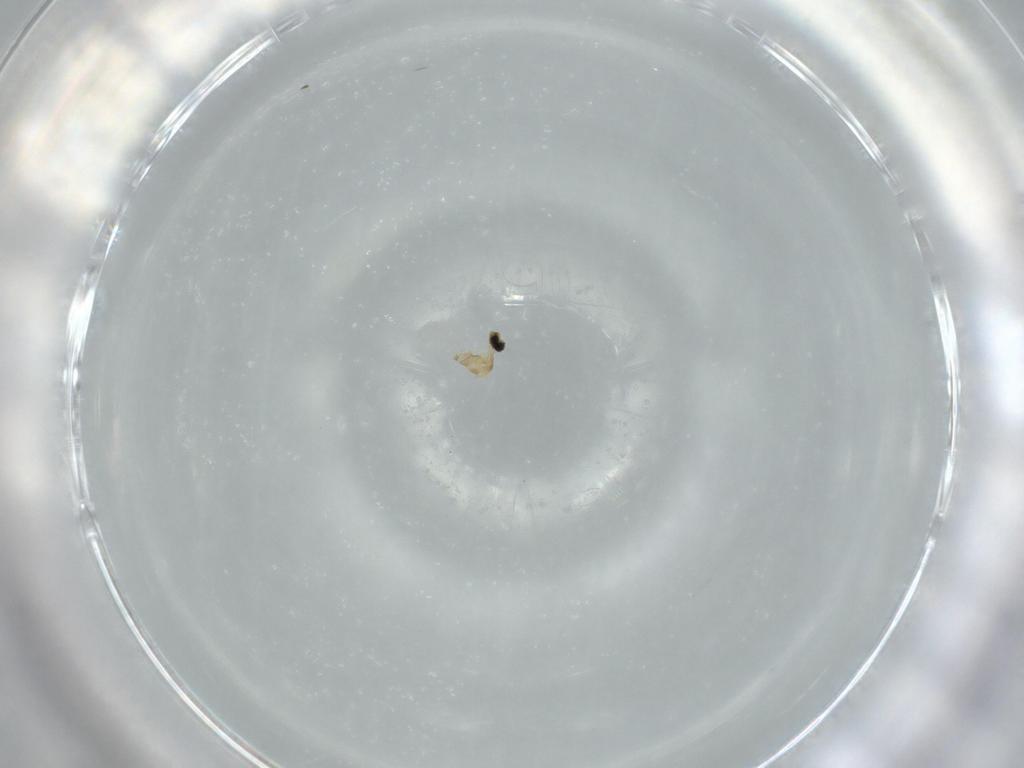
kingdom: Animalia
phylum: Arthropoda
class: Insecta
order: Diptera
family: Cecidomyiidae
